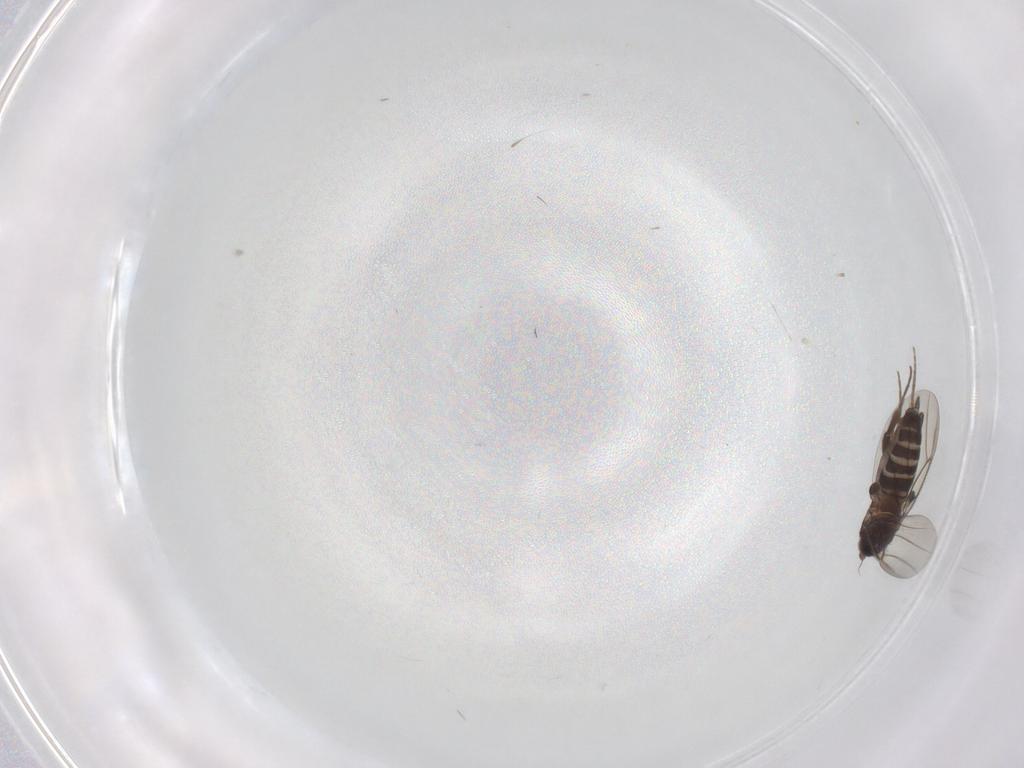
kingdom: Animalia
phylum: Arthropoda
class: Insecta
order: Diptera
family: Phoridae
